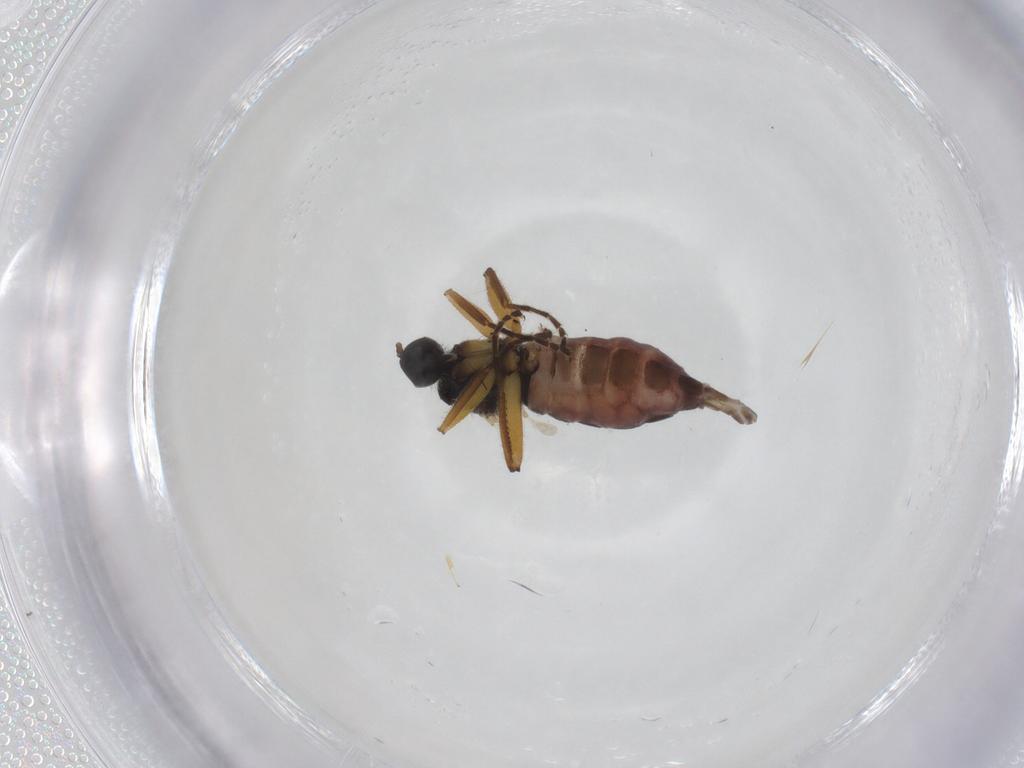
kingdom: Animalia
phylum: Arthropoda
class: Insecta
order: Diptera
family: Hybotidae
